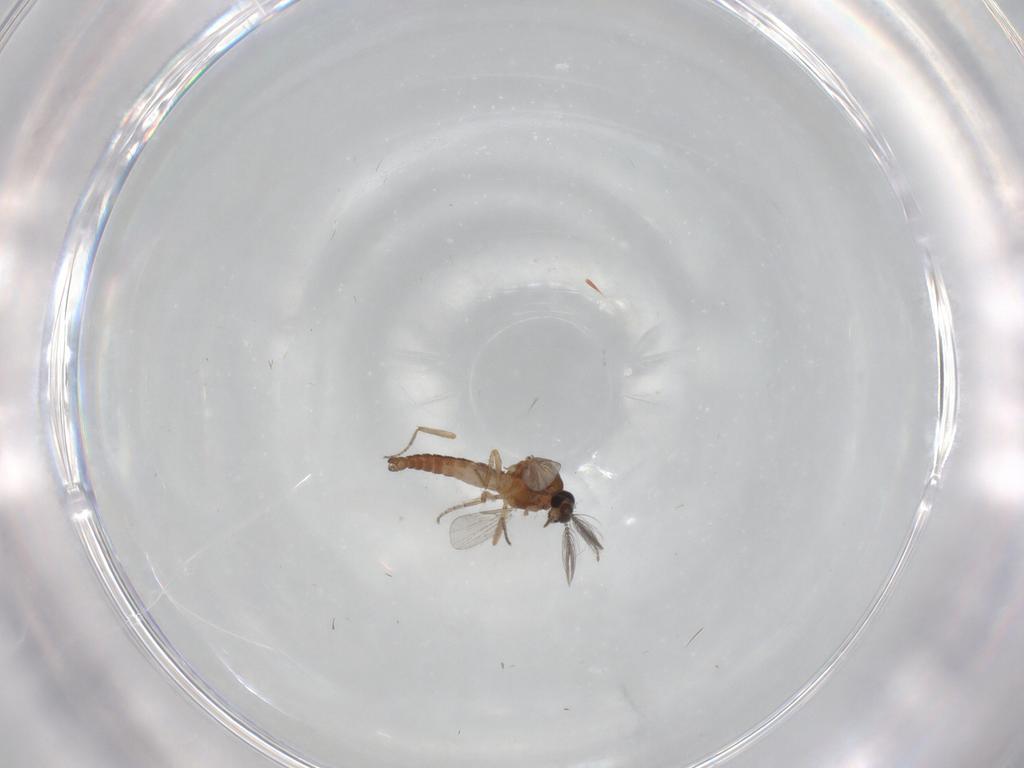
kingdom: Animalia
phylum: Arthropoda
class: Insecta
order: Diptera
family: Ceratopogonidae
